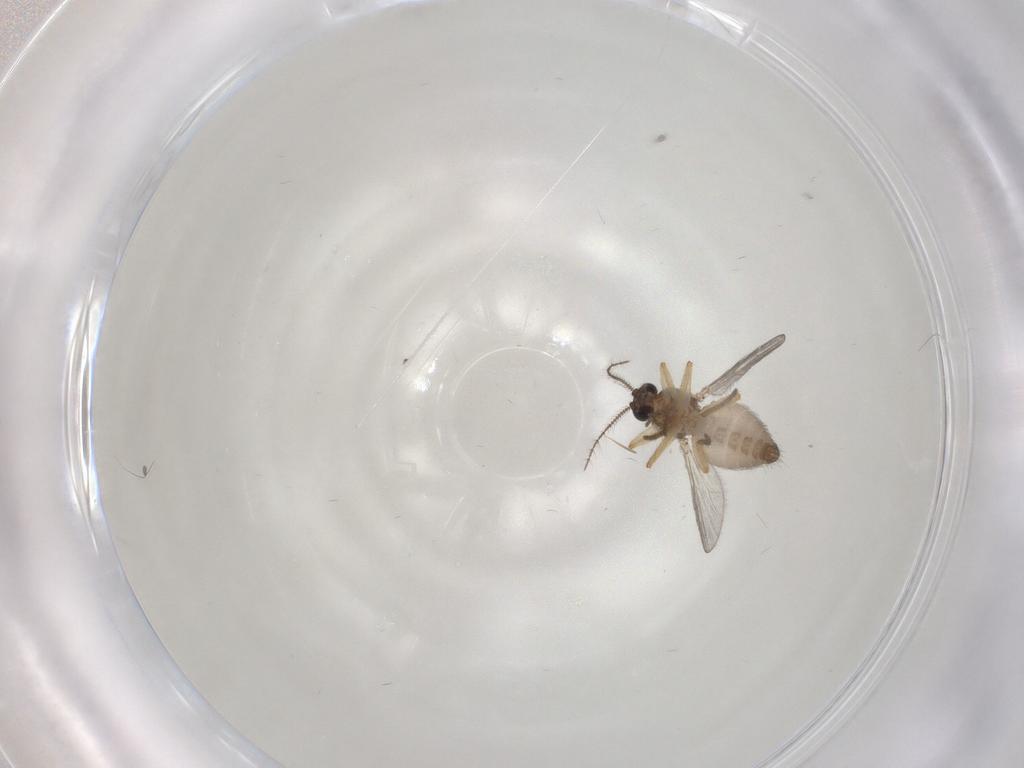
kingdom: Animalia
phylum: Arthropoda
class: Insecta
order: Diptera
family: Ceratopogonidae
